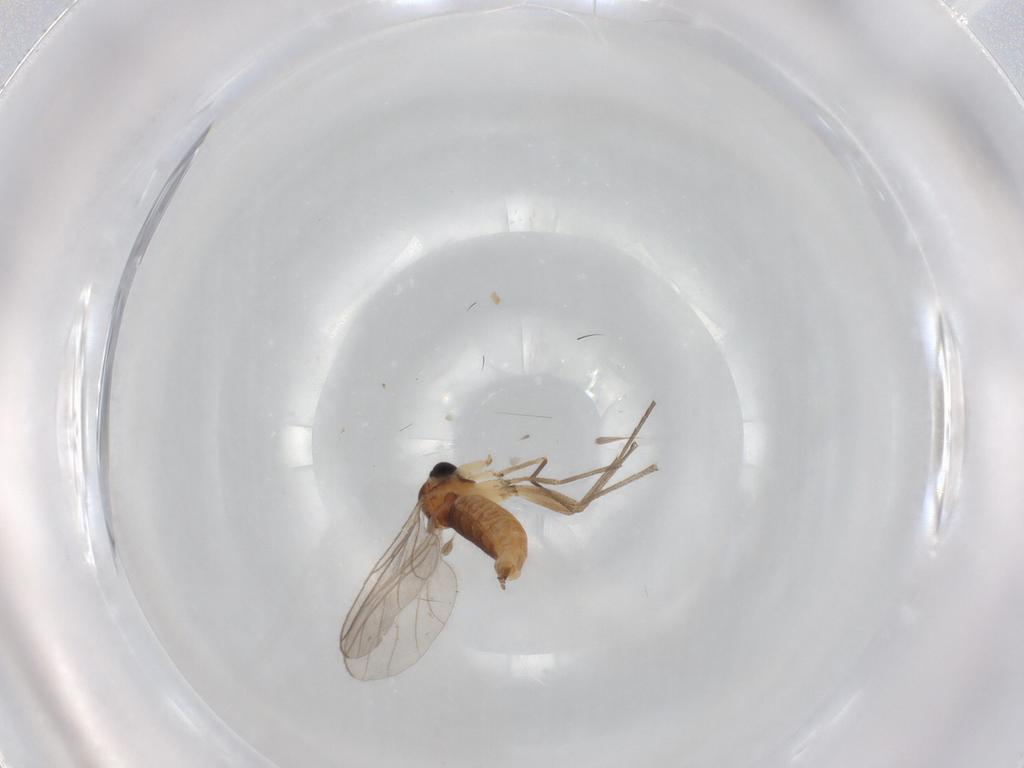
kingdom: Animalia
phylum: Arthropoda
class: Insecta
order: Diptera
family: Sciaridae
